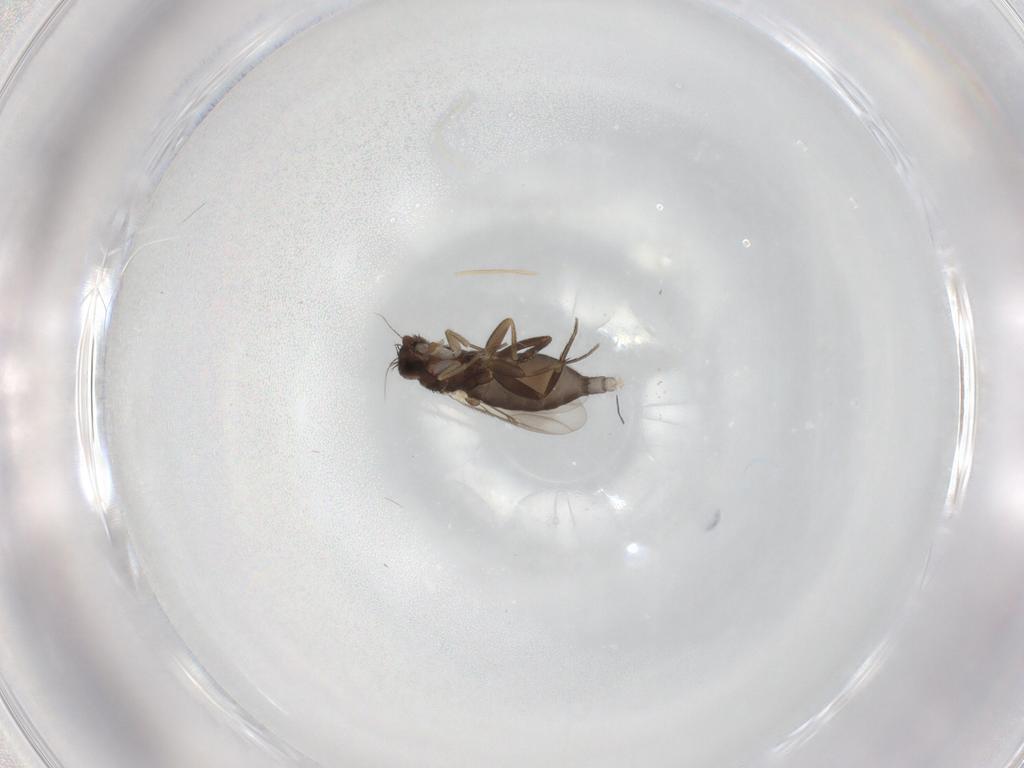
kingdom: Animalia
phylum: Arthropoda
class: Insecta
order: Diptera
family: Phoridae
